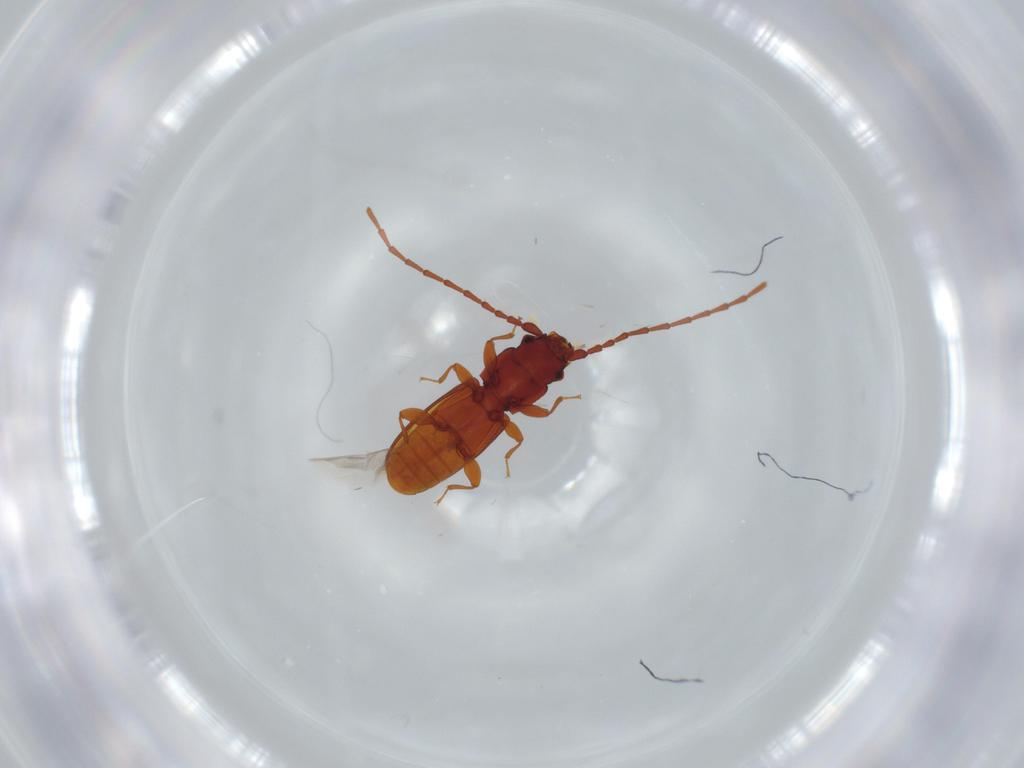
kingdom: Animalia
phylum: Arthropoda
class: Insecta
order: Coleoptera
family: Laemophloeidae
